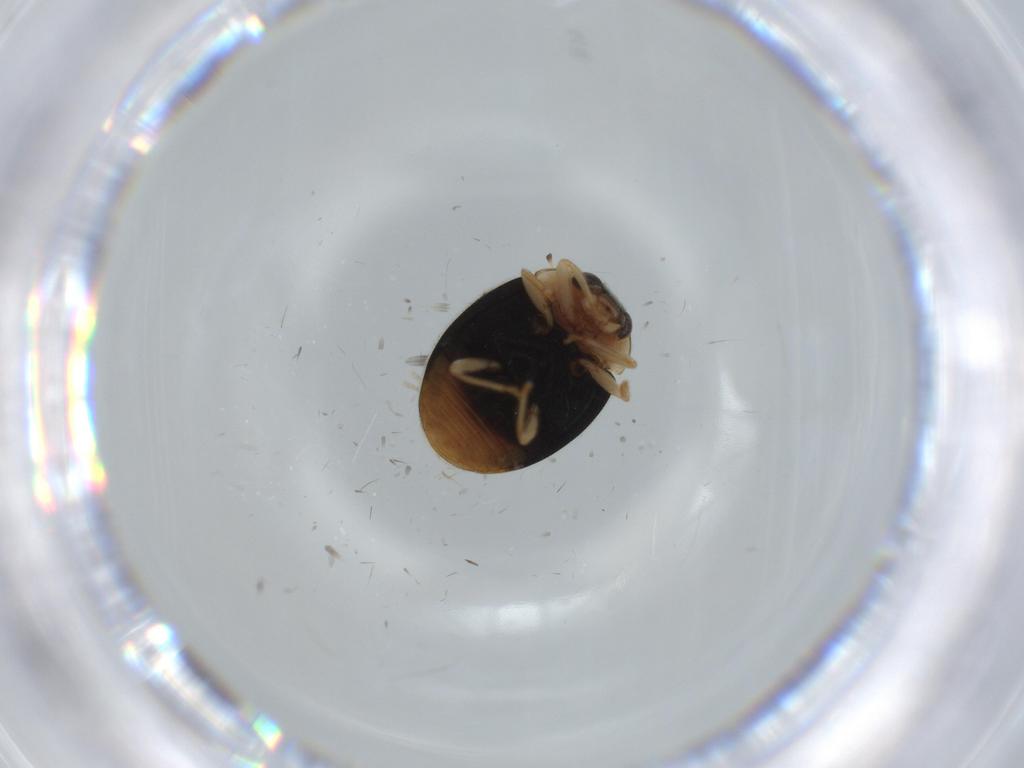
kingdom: Animalia
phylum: Arthropoda
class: Insecta
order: Coleoptera
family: Coccinellidae
